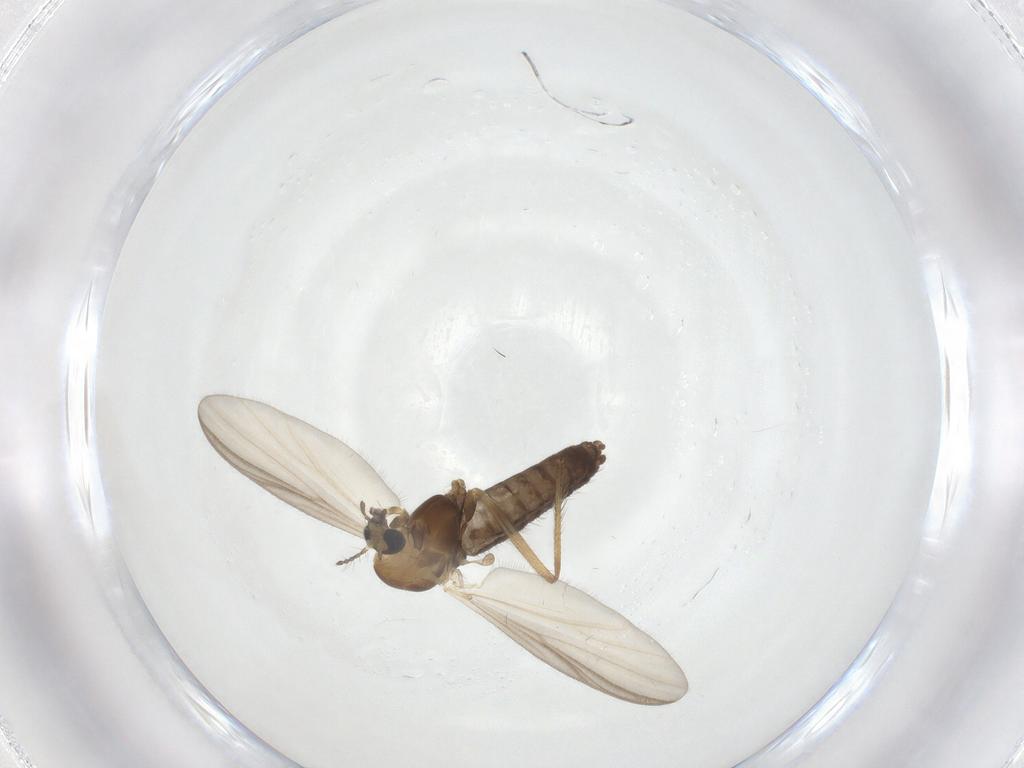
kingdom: Animalia
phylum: Arthropoda
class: Insecta
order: Diptera
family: Chironomidae
